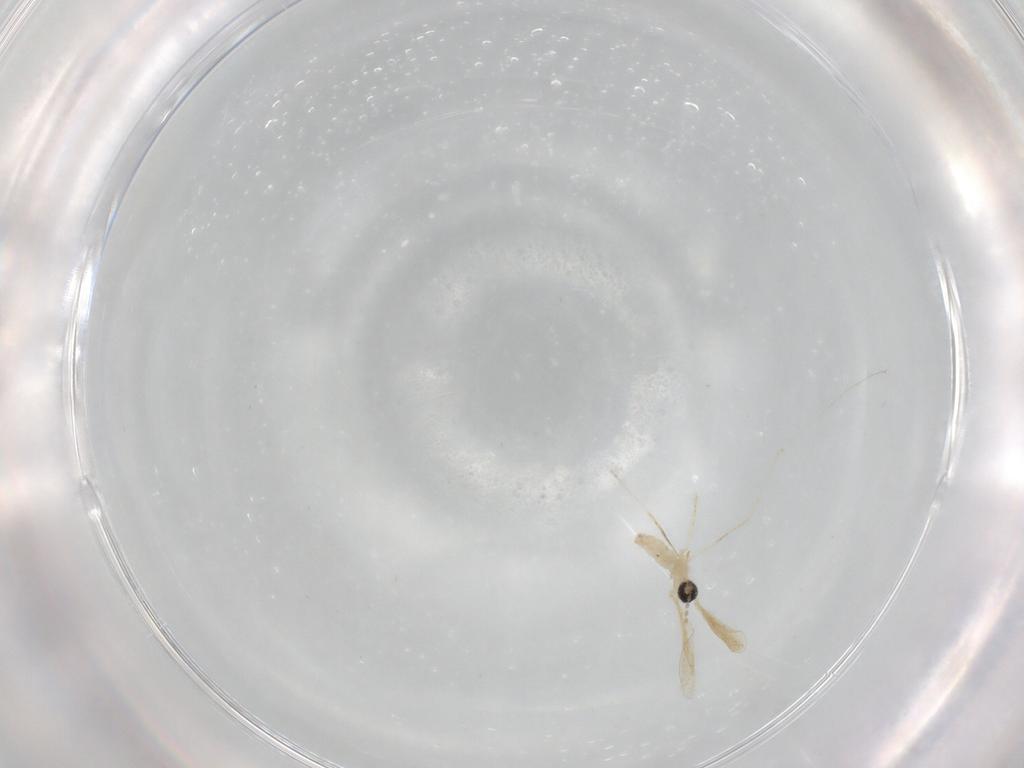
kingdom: Animalia
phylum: Arthropoda
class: Insecta
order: Diptera
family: Cecidomyiidae
